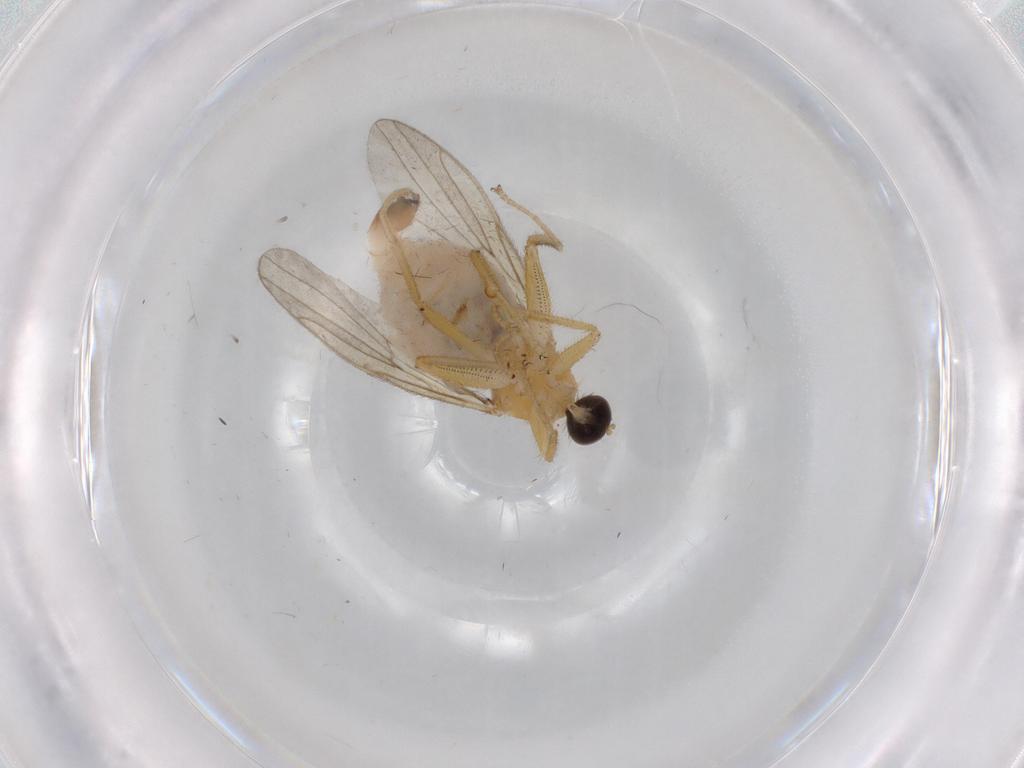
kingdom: Animalia
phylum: Arthropoda
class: Insecta
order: Diptera
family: Hybotidae
